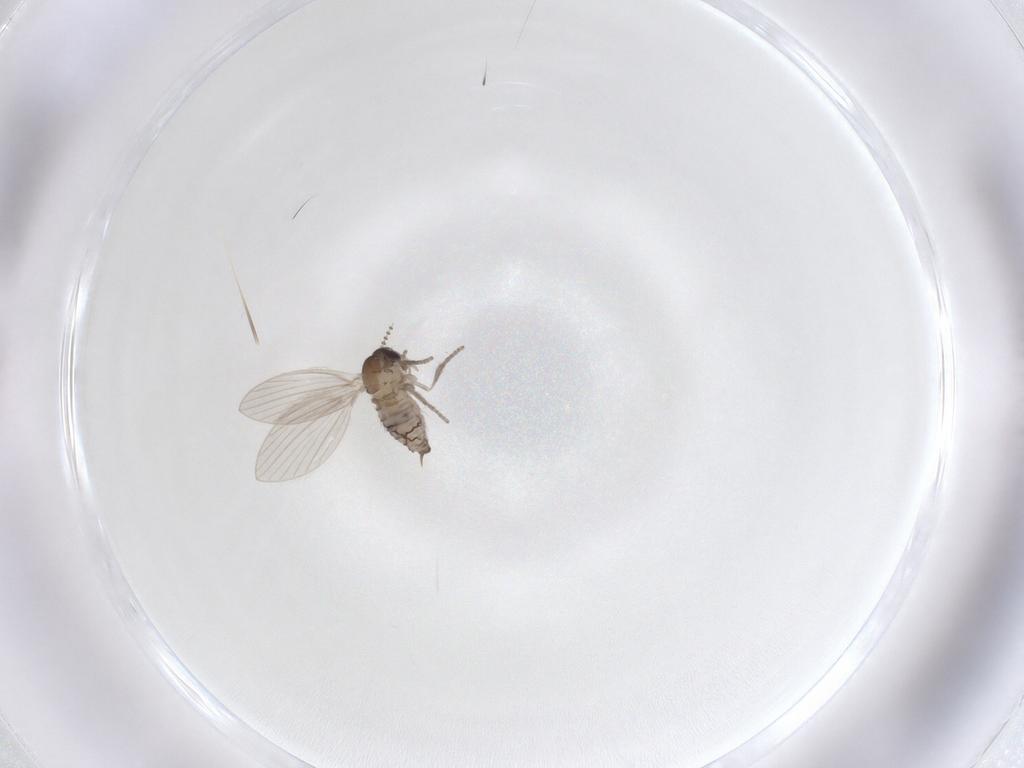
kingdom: Animalia
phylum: Arthropoda
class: Insecta
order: Diptera
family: Psychodidae
